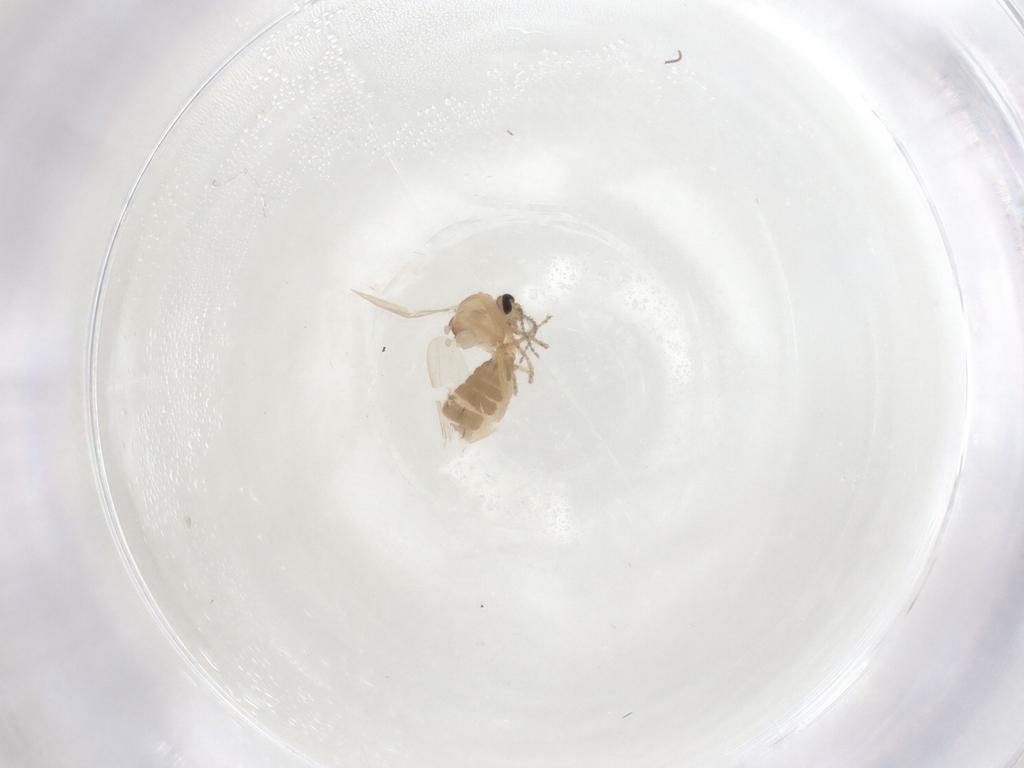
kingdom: Animalia
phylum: Arthropoda
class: Insecta
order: Diptera
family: Ceratopogonidae
